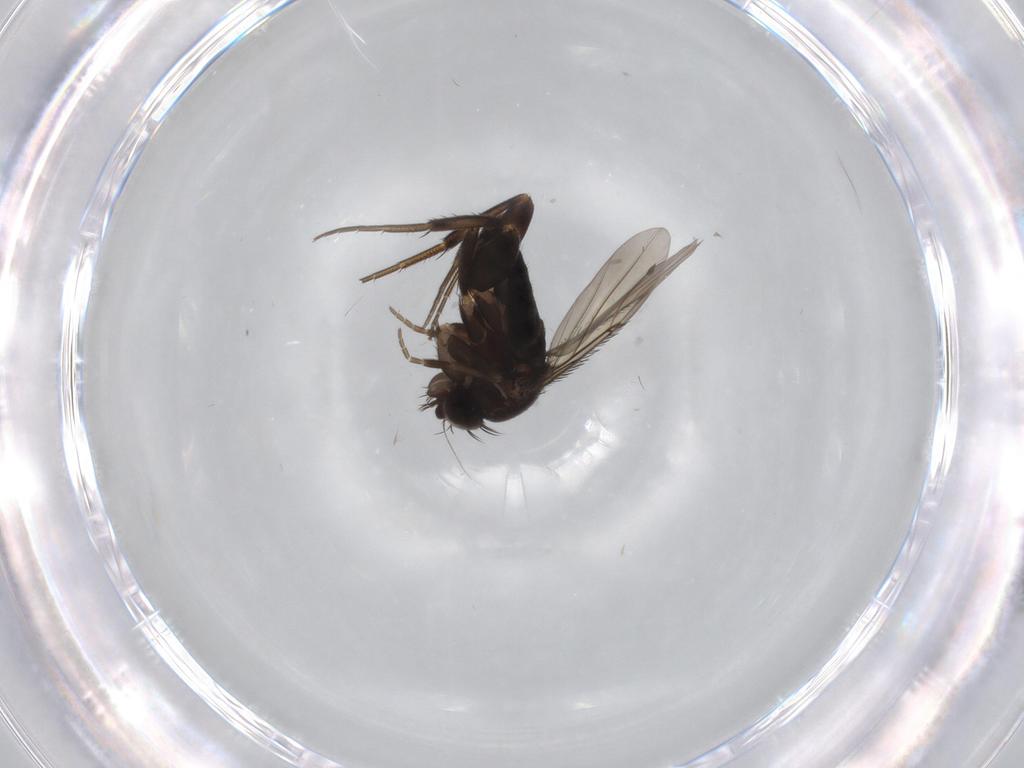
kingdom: Animalia
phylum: Arthropoda
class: Insecta
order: Diptera
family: Phoridae
